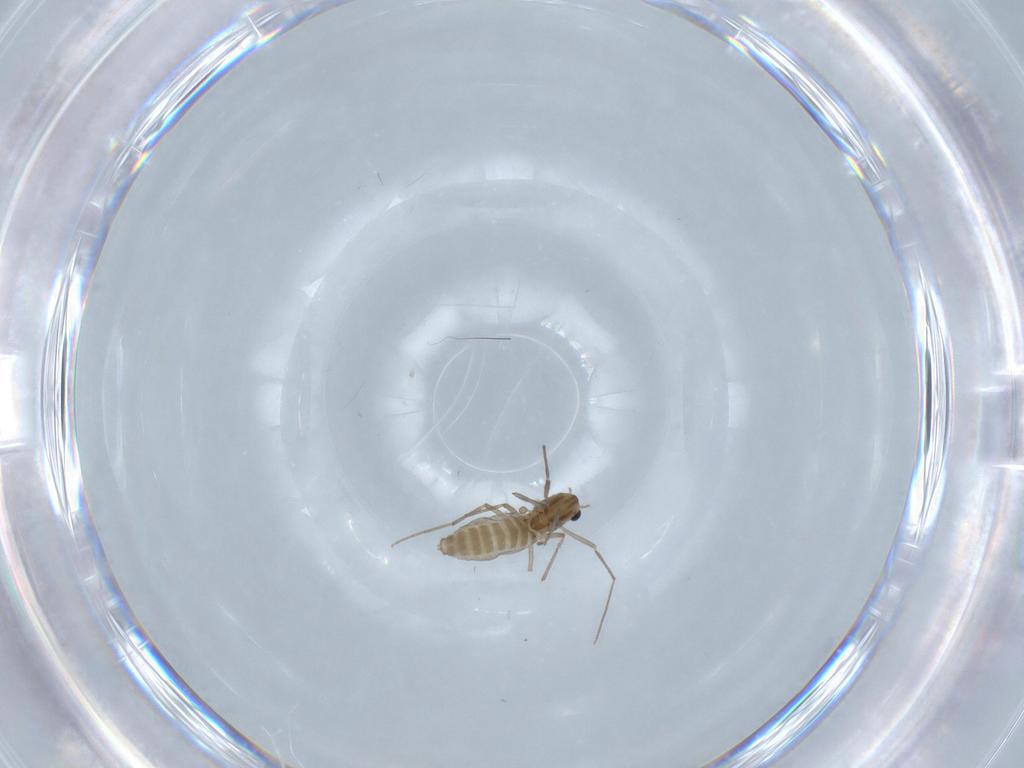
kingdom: Animalia
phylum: Arthropoda
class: Insecta
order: Diptera
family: Chironomidae
